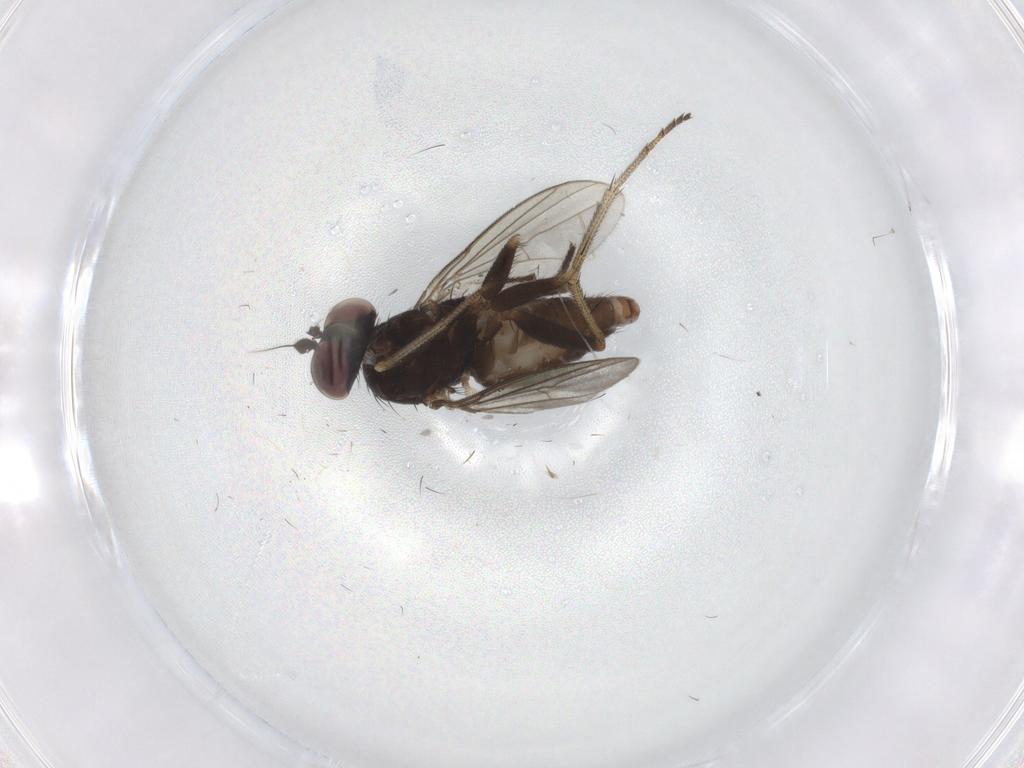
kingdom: Animalia
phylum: Arthropoda
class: Insecta
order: Diptera
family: Dolichopodidae
